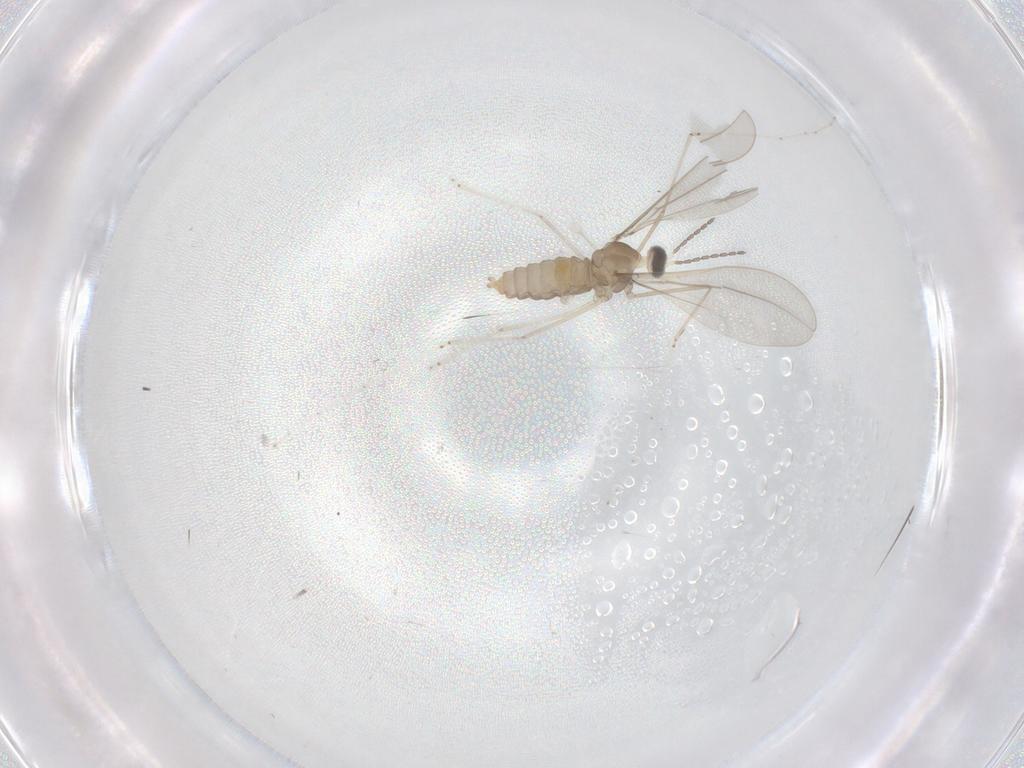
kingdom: Animalia
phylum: Arthropoda
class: Insecta
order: Diptera
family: Cecidomyiidae
